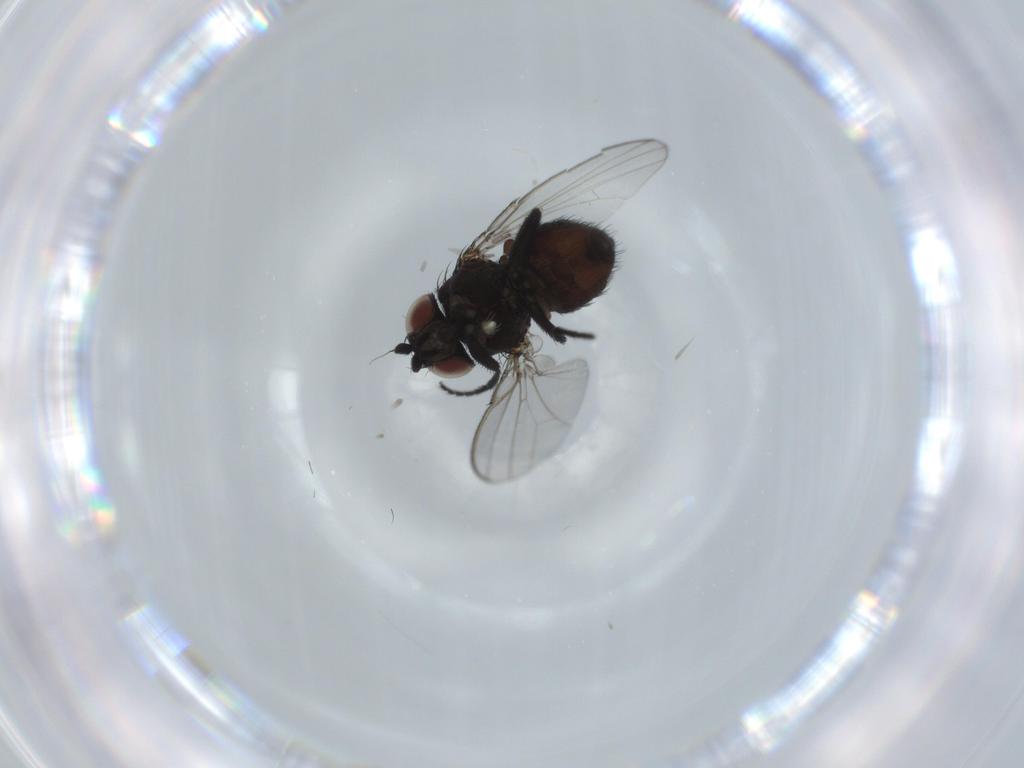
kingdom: Animalia
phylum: Arthropoda
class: Insecta
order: Diptera
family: Milichiidae
